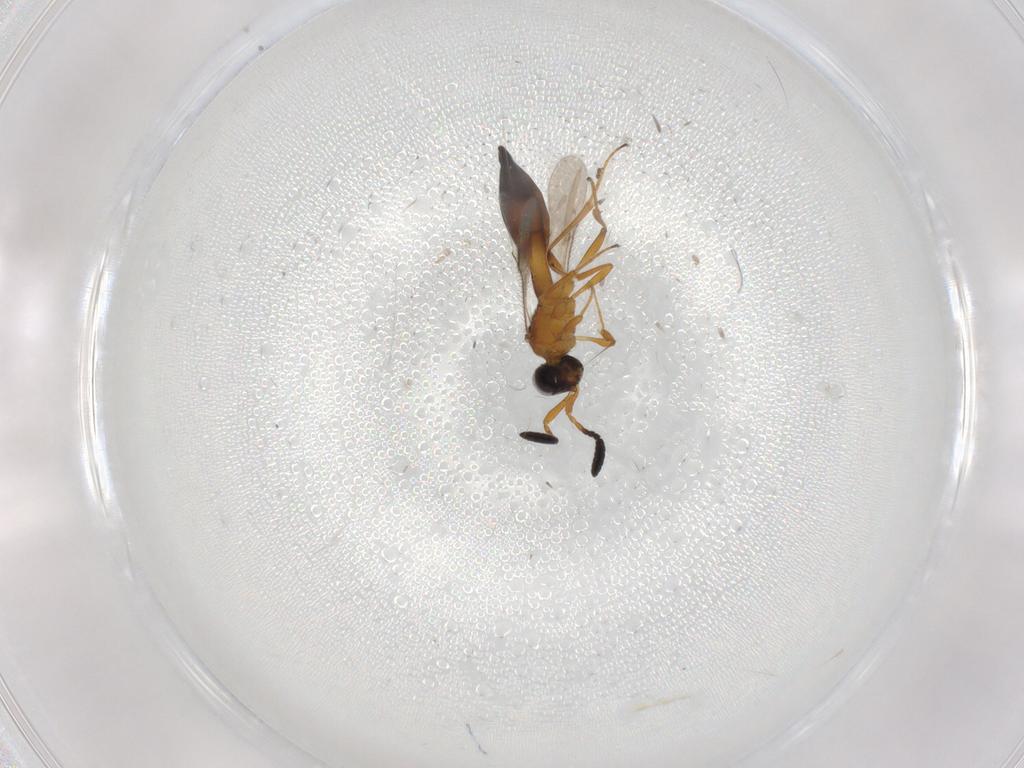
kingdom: Animalia
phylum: Arthropoda
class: Insecta
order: Hymenoptera
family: Scelionidae
